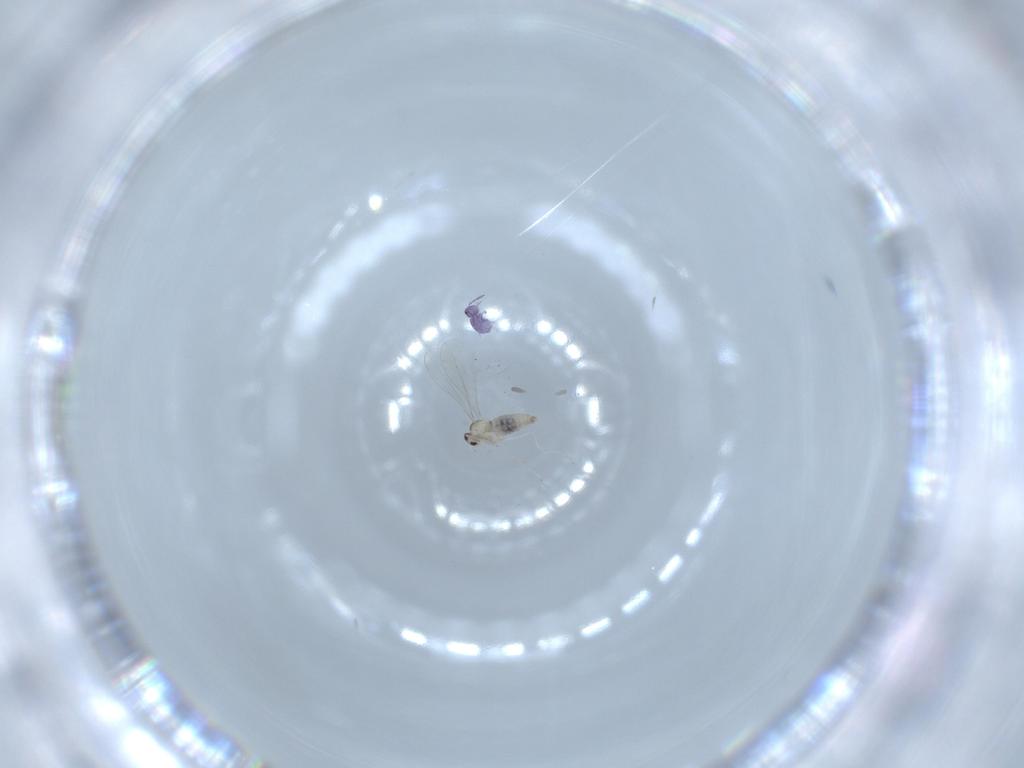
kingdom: Animalia
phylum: Arthropoda
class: Insecta
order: Diptera
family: Cecidomyiidae
